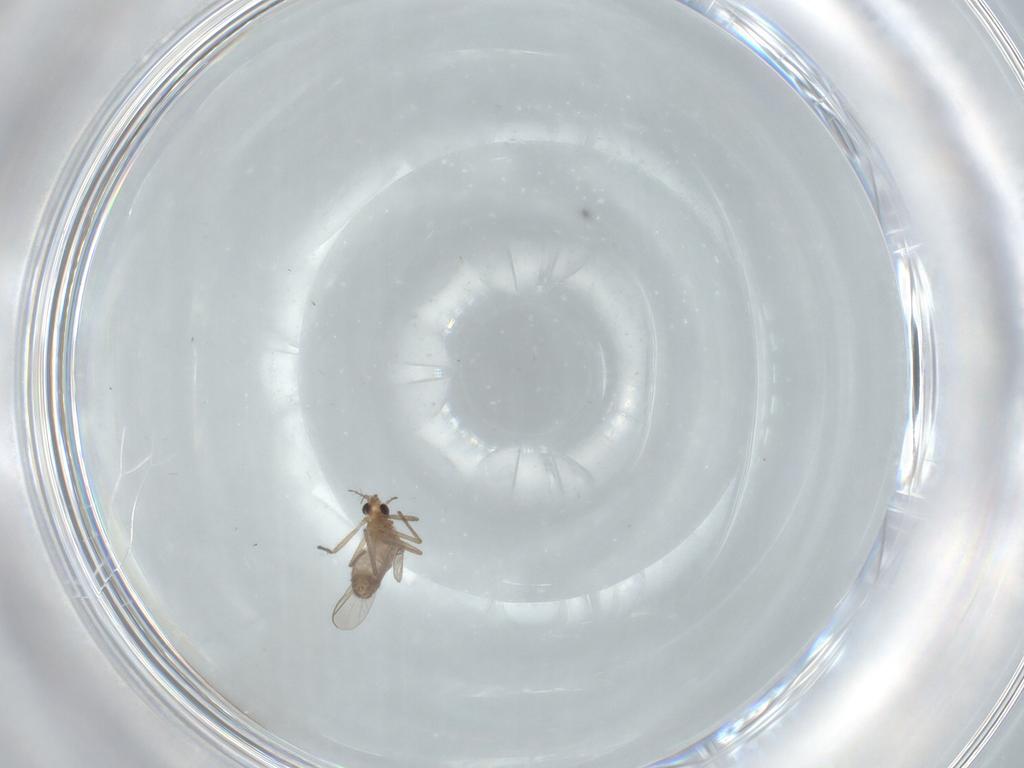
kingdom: Animalia
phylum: Arthropoda
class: Insecta
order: Diptera
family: Chironomidae
